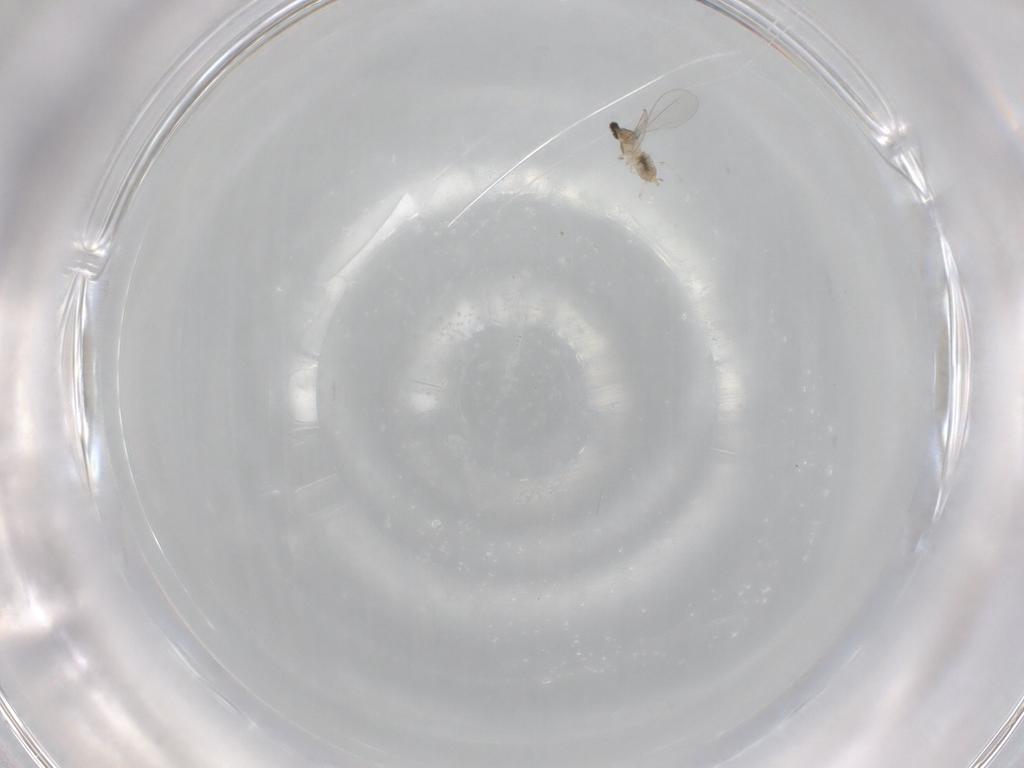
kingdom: Animalia
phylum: Arthropoda
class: Insecta
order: Diptera
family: Cecidomyiidae
